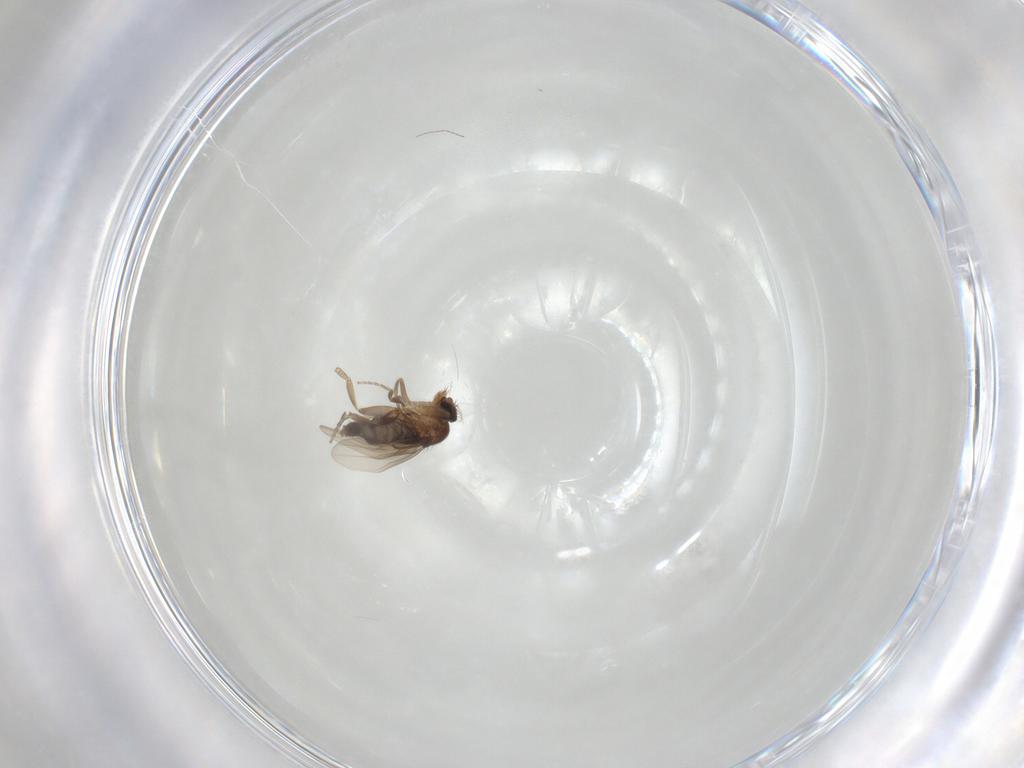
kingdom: Animalia
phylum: Arthropoda
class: Insecta
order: Diptera
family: Phoridae
